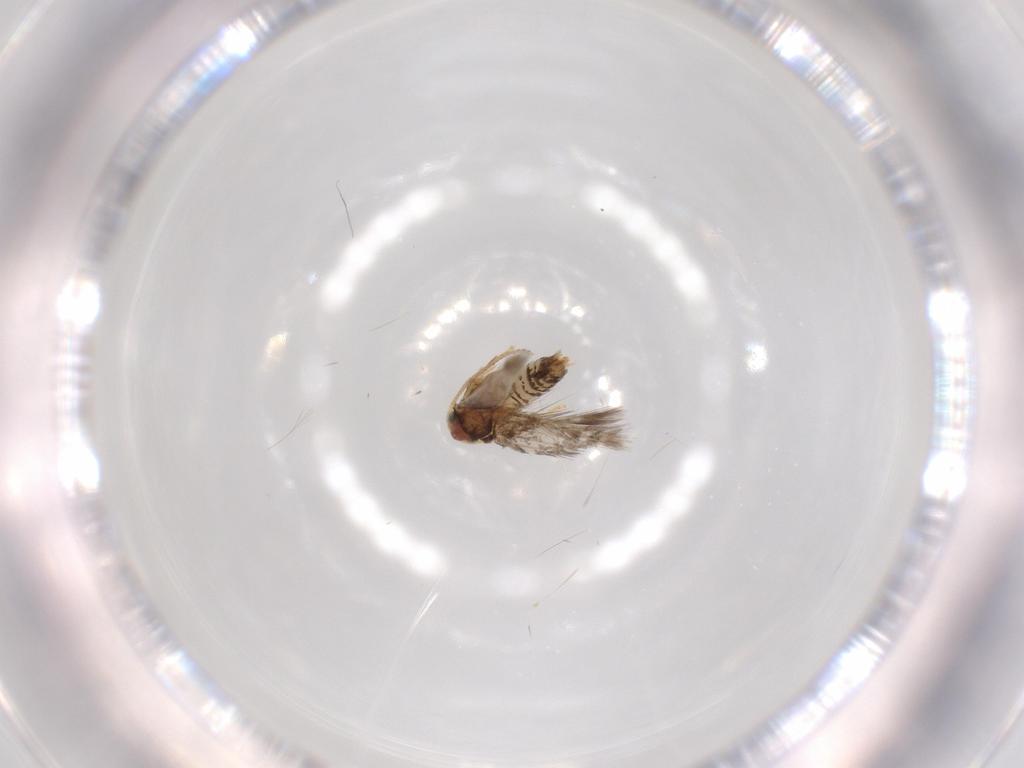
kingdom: Animalia
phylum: Arthropoda
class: Insecta
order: Lepidoptera
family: Nepticulidae
